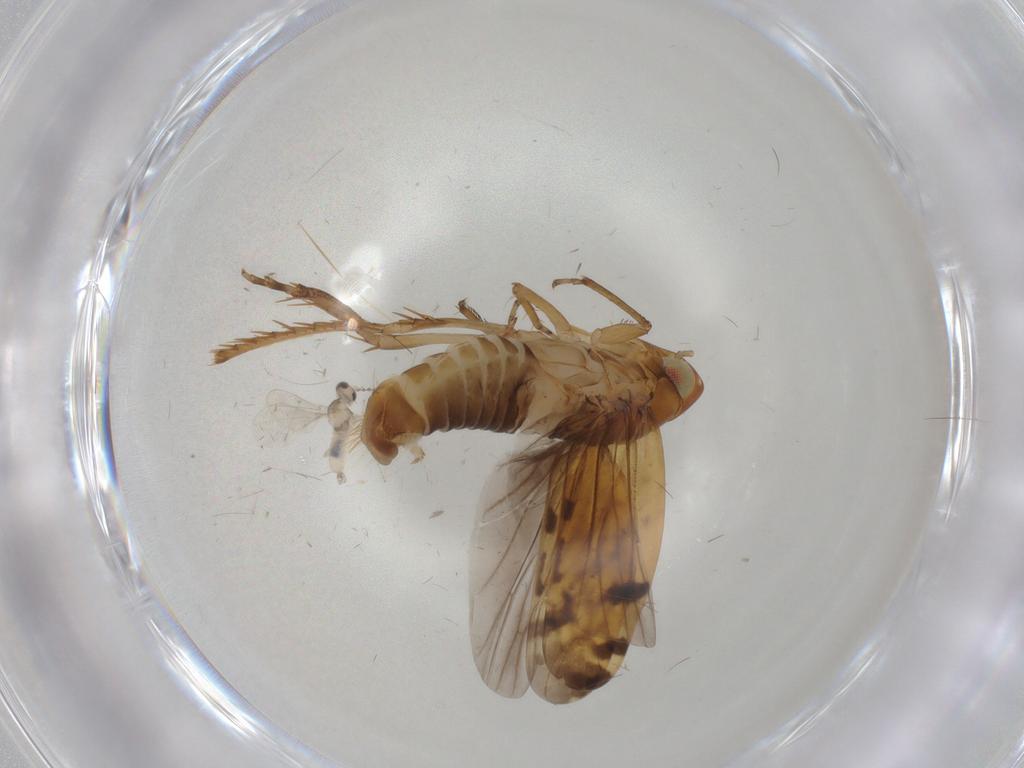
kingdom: Animalia
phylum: Arthropoda
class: Insecta
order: Diptera
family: Cecidomyiidae
